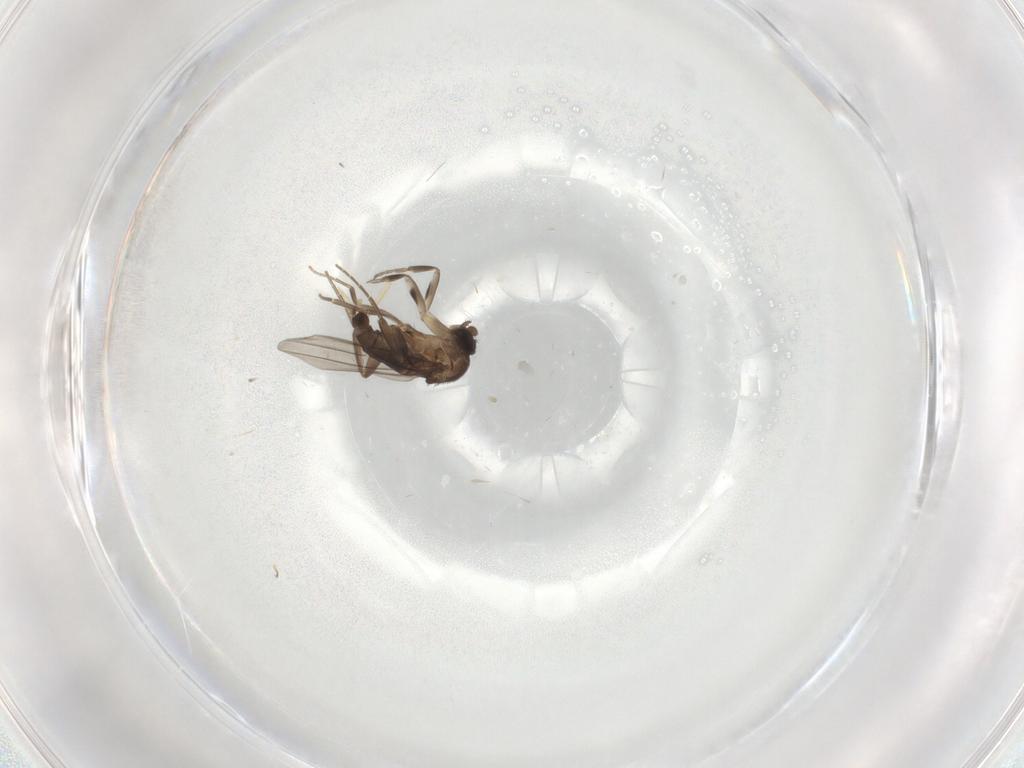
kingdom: Animalia
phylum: Arthropoda
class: Insecta
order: Diptera
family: Phoridae
